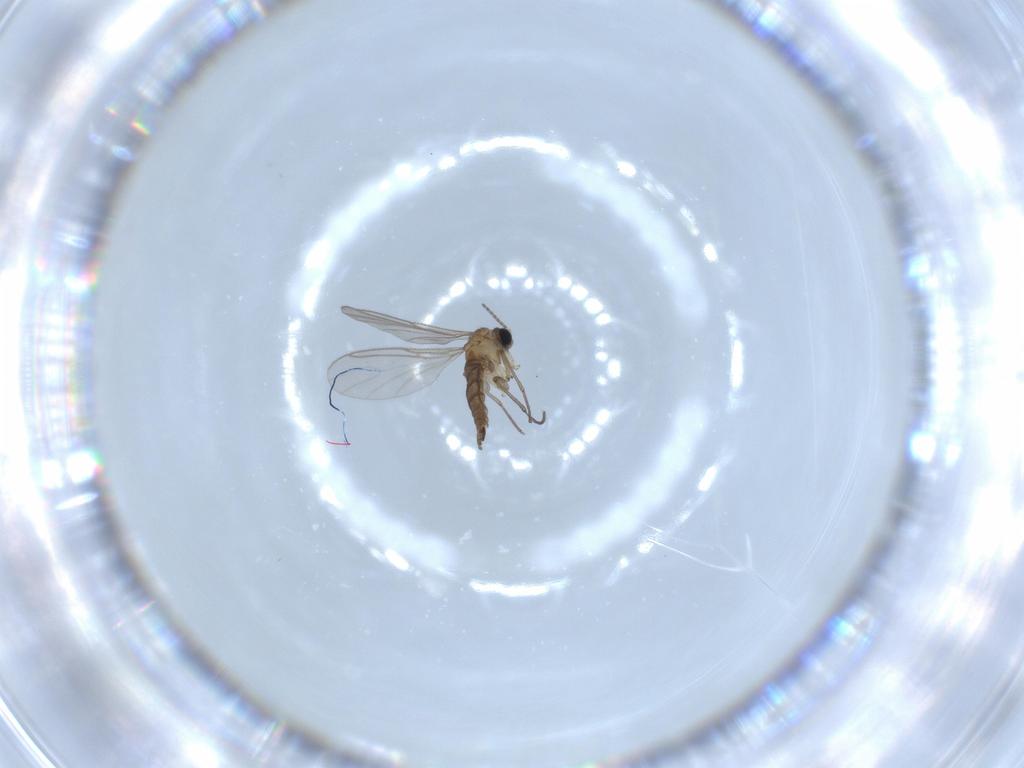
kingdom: Animalia
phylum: Arthropoda
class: Insecta
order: Diptera
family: Sciaridae
